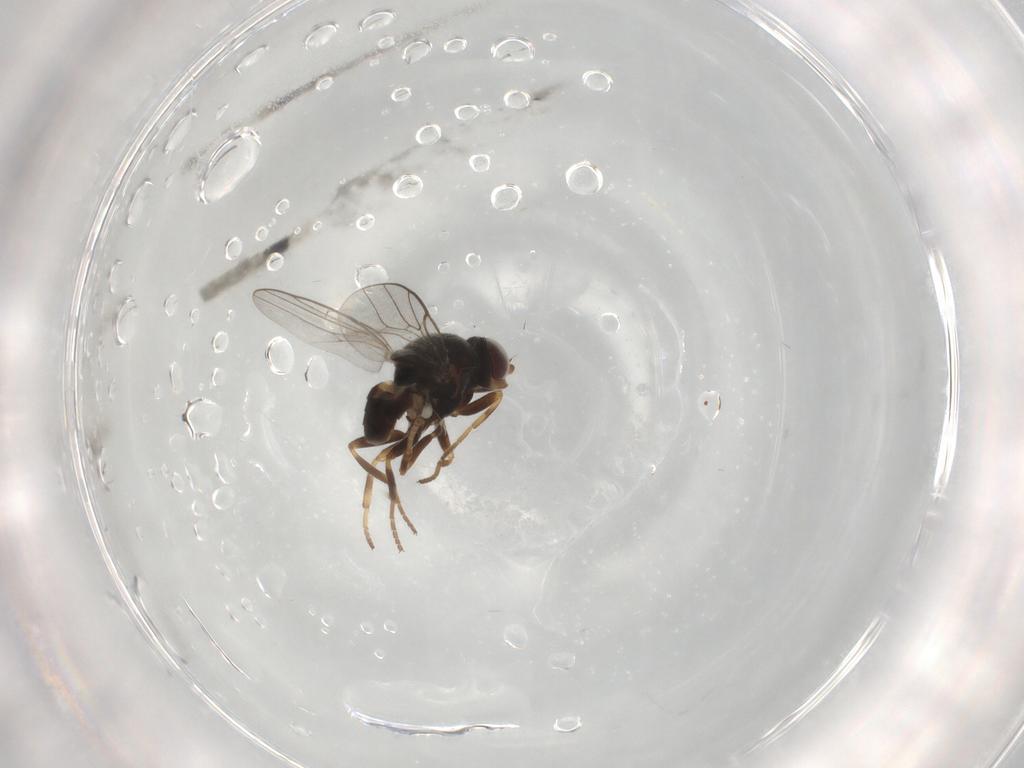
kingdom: Animalia
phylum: Arthropoda
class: Insecta
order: Diptera
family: Chloropidae
